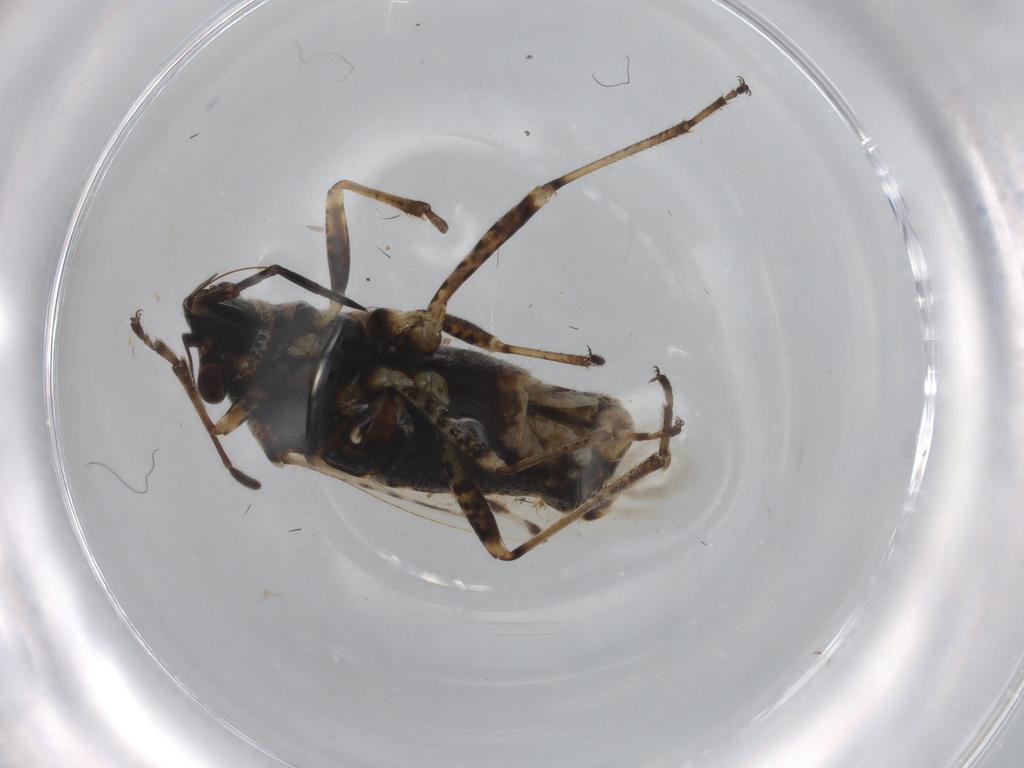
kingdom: Animalia
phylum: Arthropoda
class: Insecta
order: Hemiptera
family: Lygaeidae
